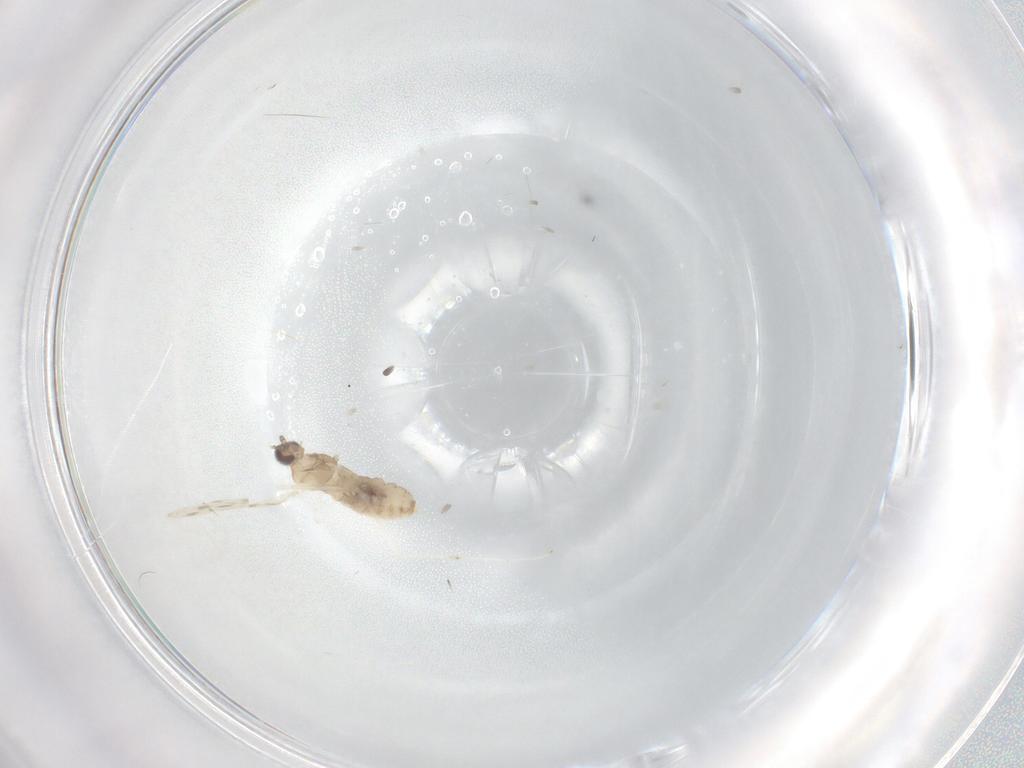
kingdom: Animalia
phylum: Arthropoda
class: Insecta
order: Diptera
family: Cecidomyiidae
